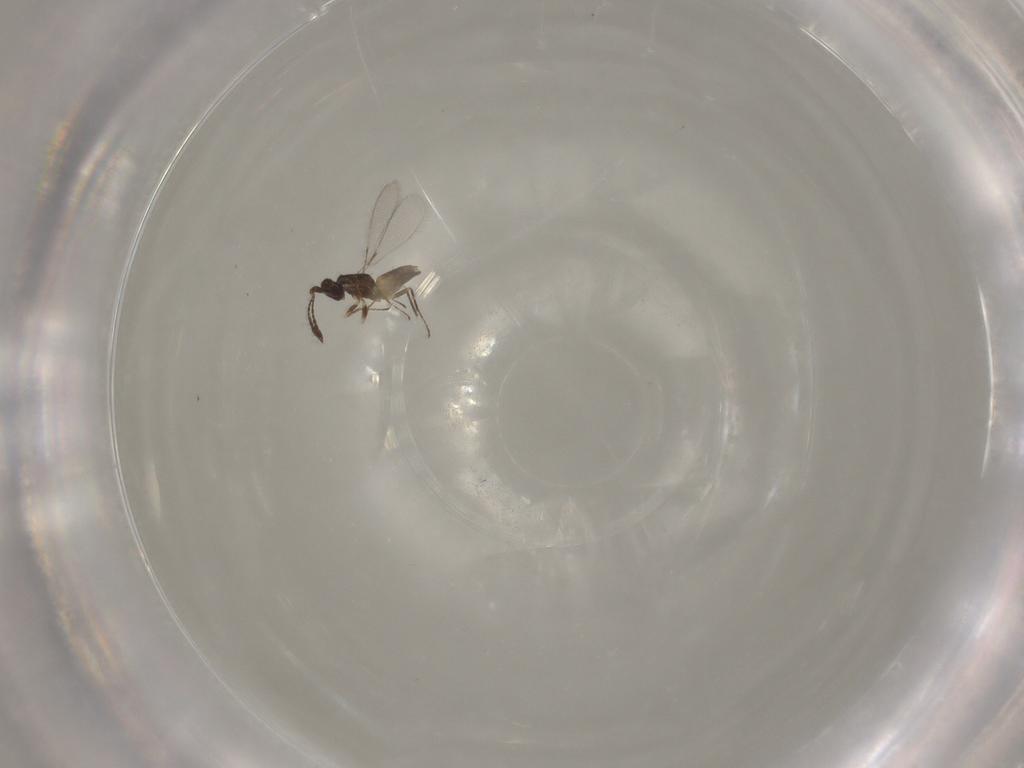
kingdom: Animalia
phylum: Arthropoda
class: Insecta
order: Hymenoptera
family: Mymaridae
